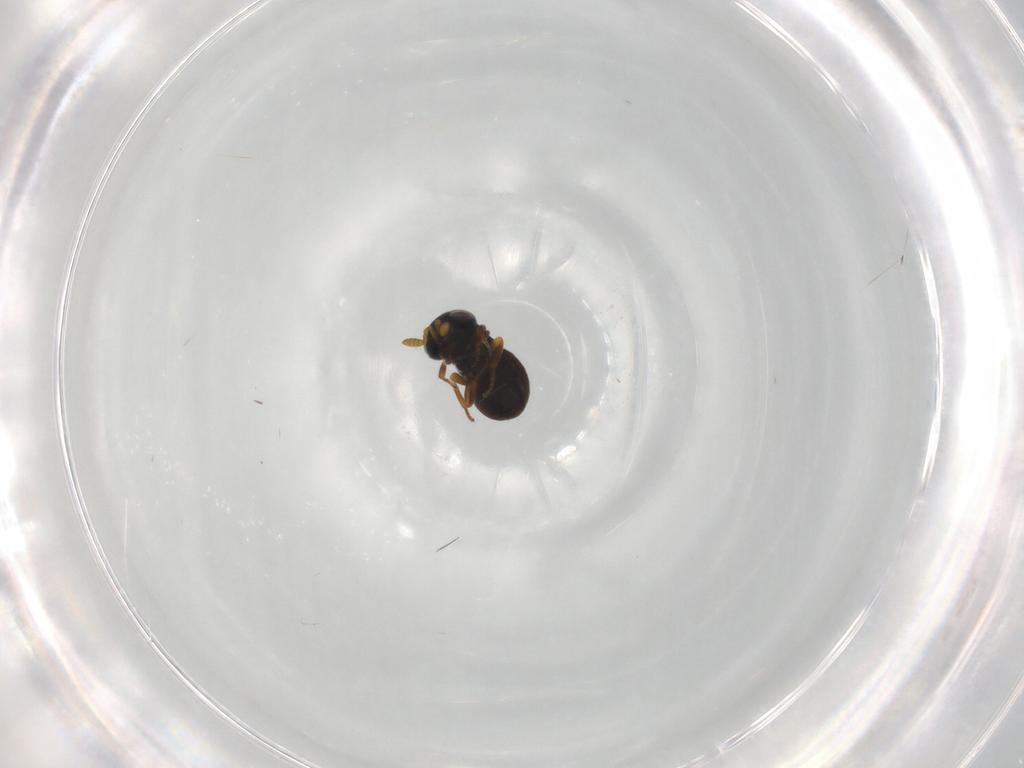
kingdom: Animalia
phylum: Arthropoda
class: Insecta
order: Hymenoptera
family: Scelionidae
